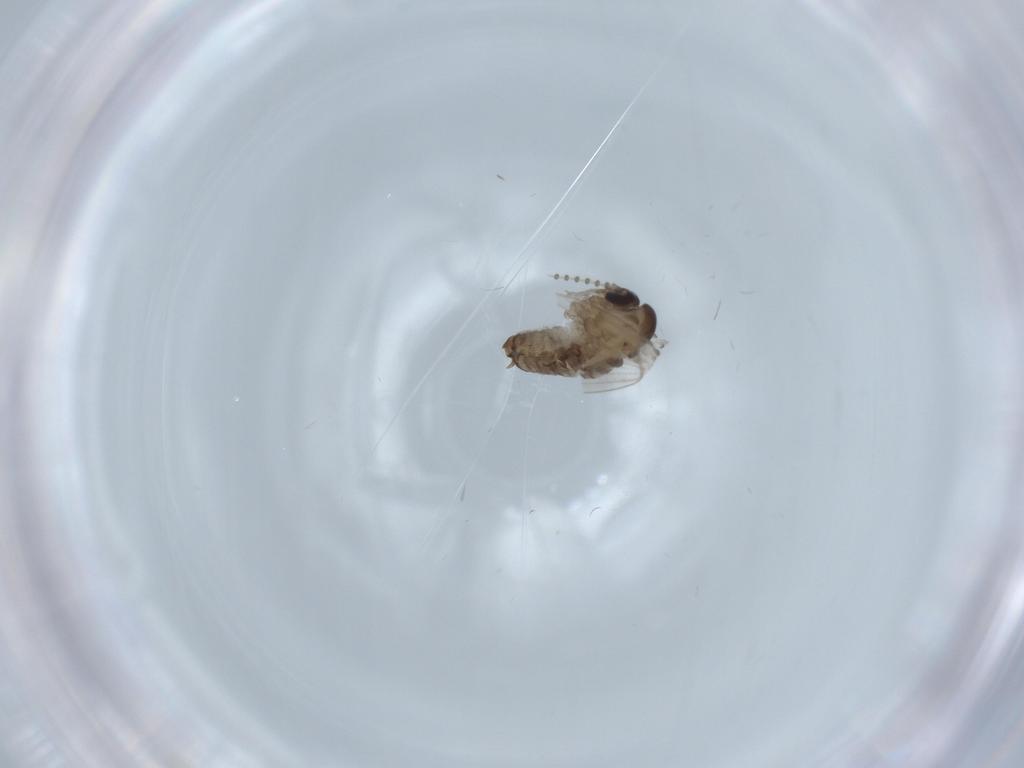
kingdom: Animalia
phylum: Arthropoda
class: Insecta
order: Diptera
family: Psychodidae
